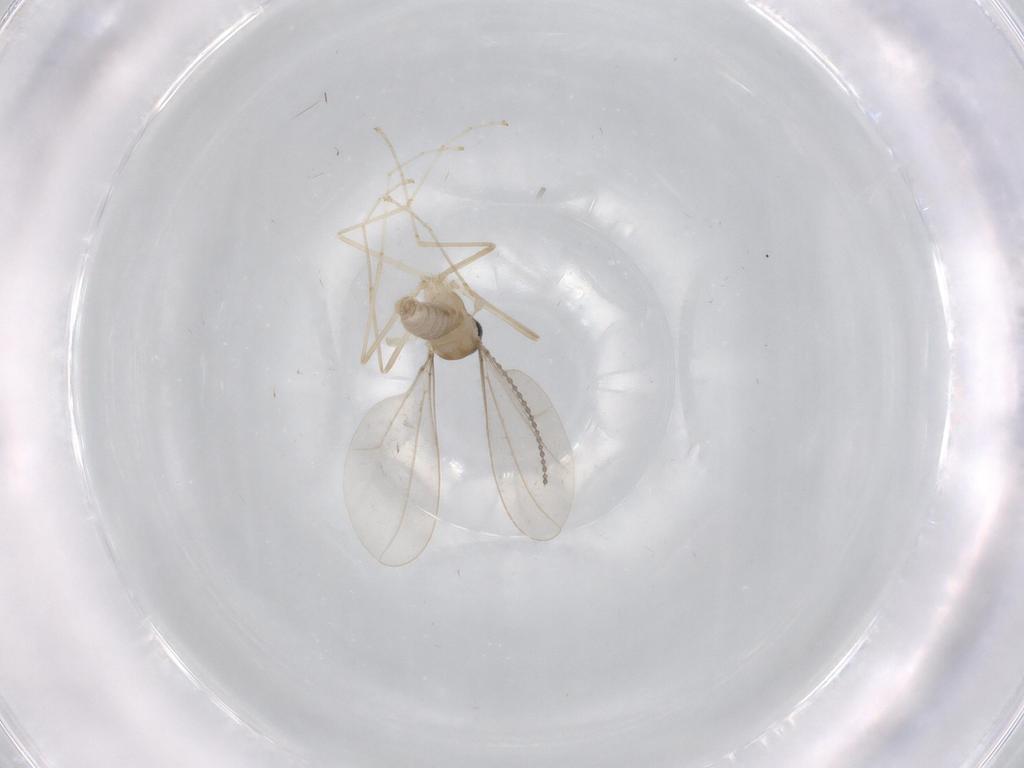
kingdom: Animalia
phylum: Arthropoda
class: Insecta
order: Diptera
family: Cecidomyiidae
